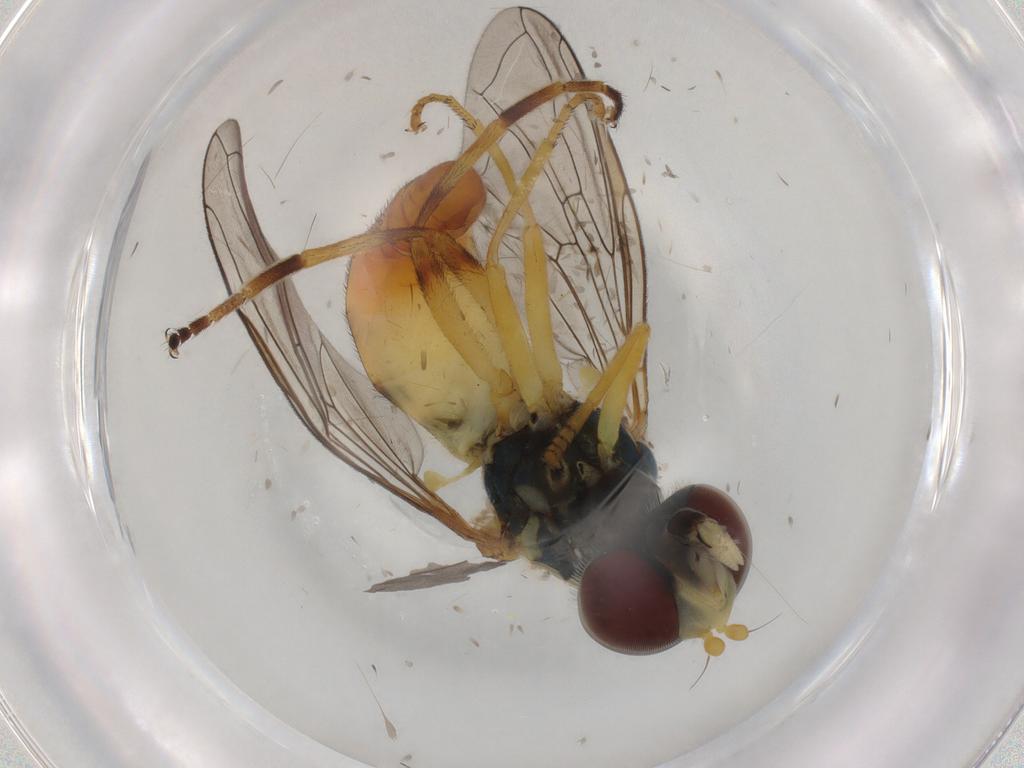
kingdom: Animalia
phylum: Arthropoda
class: Insecta
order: Diptera
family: Syrphidae
